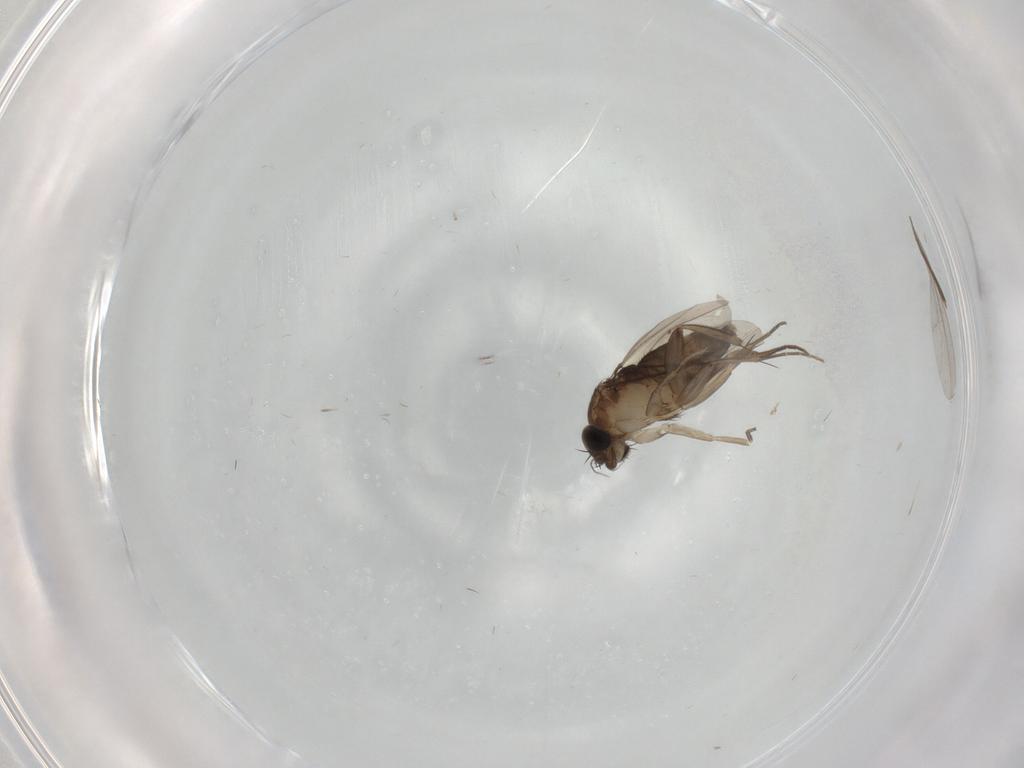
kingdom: Animalia
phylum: Arthropoda
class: Insecta
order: Diptera
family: Phoridae
